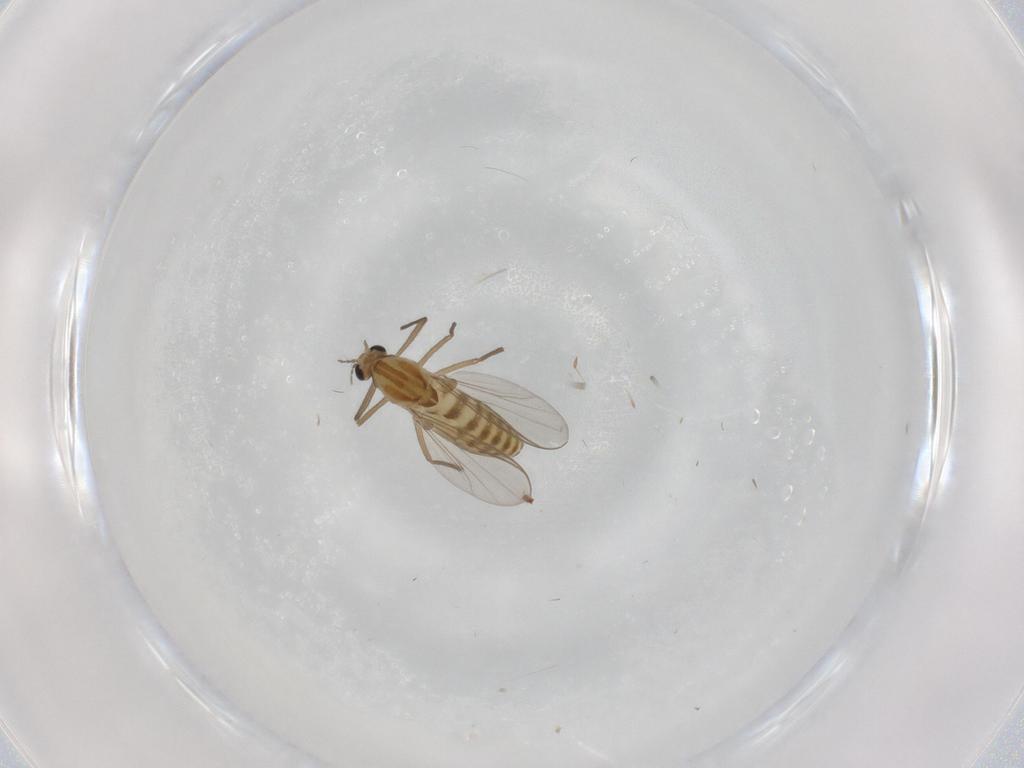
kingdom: Animalia
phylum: Arthropoda
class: Insecta
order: Diptera
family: Chironomidae
